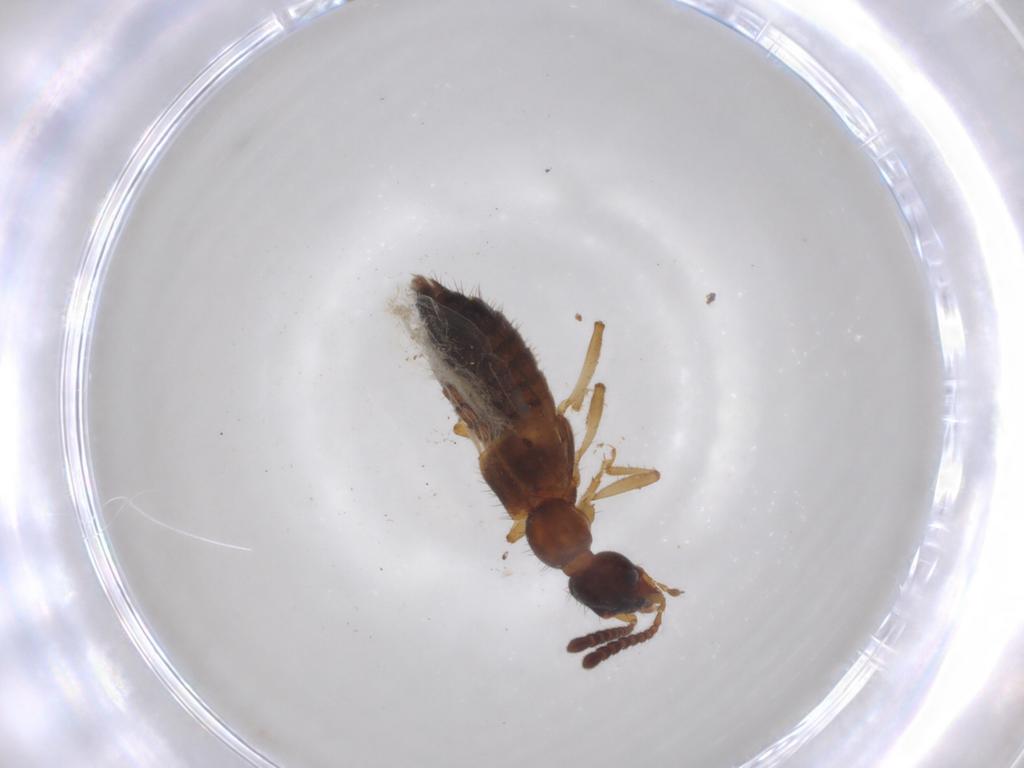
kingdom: Animalia
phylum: Arthropoda
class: Insecta
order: Coleoptera
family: Staphylinidae
